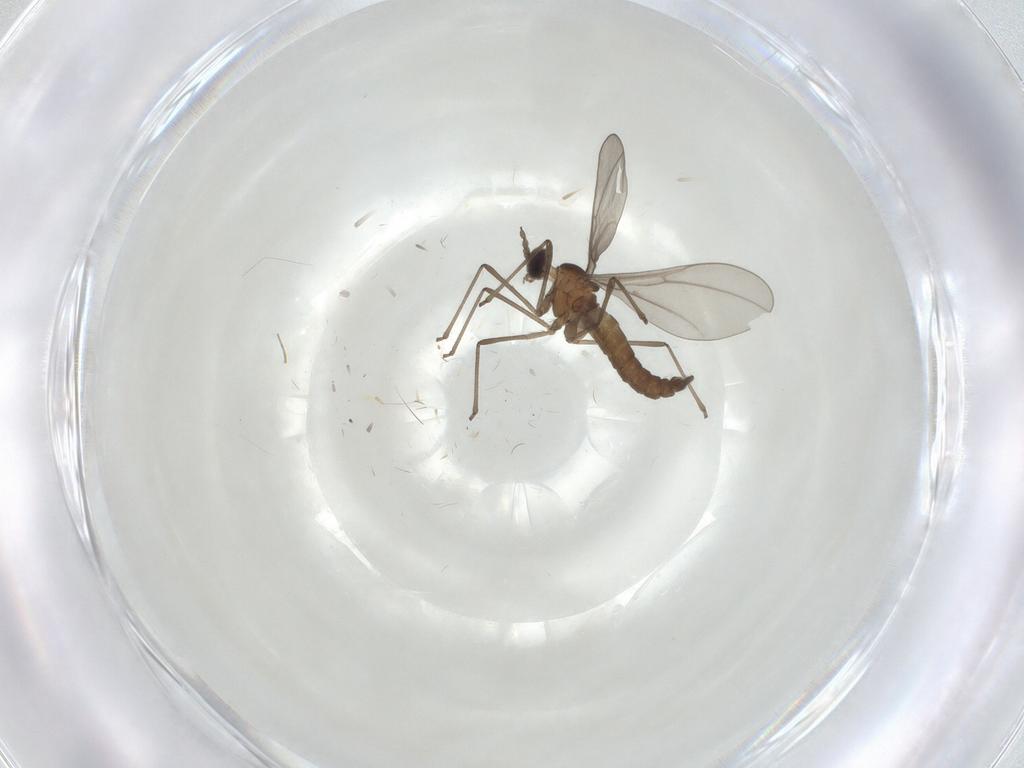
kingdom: Animalia
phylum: Arthropoda
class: Insecta
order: Diptera
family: Cecidomyiidae
